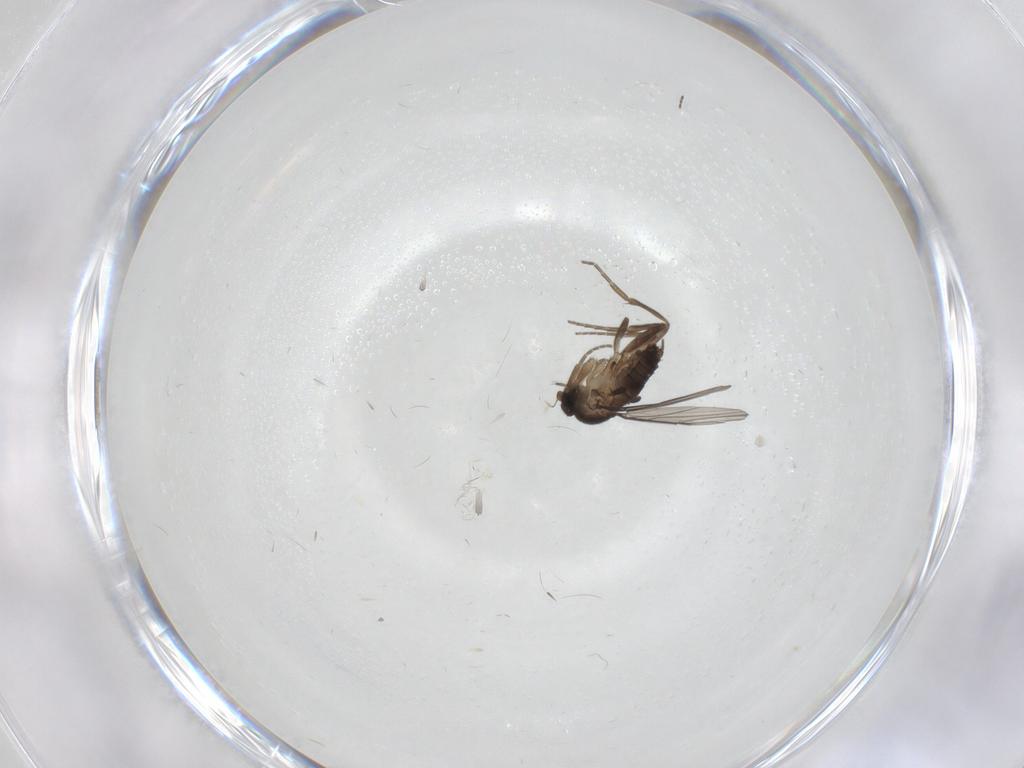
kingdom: Animalia
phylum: Arthropoda
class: Insecta
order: Diptera
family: Phoridae
